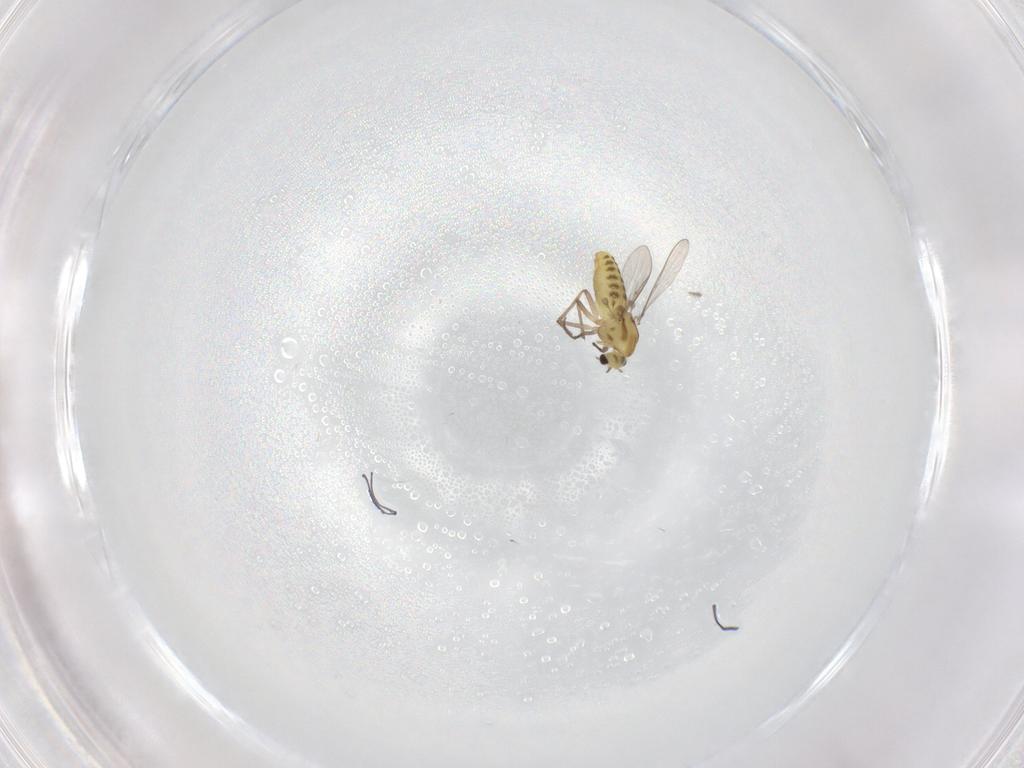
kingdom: Animalia
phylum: Arthropoda
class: Insecta
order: Diptera
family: Chironomidae
